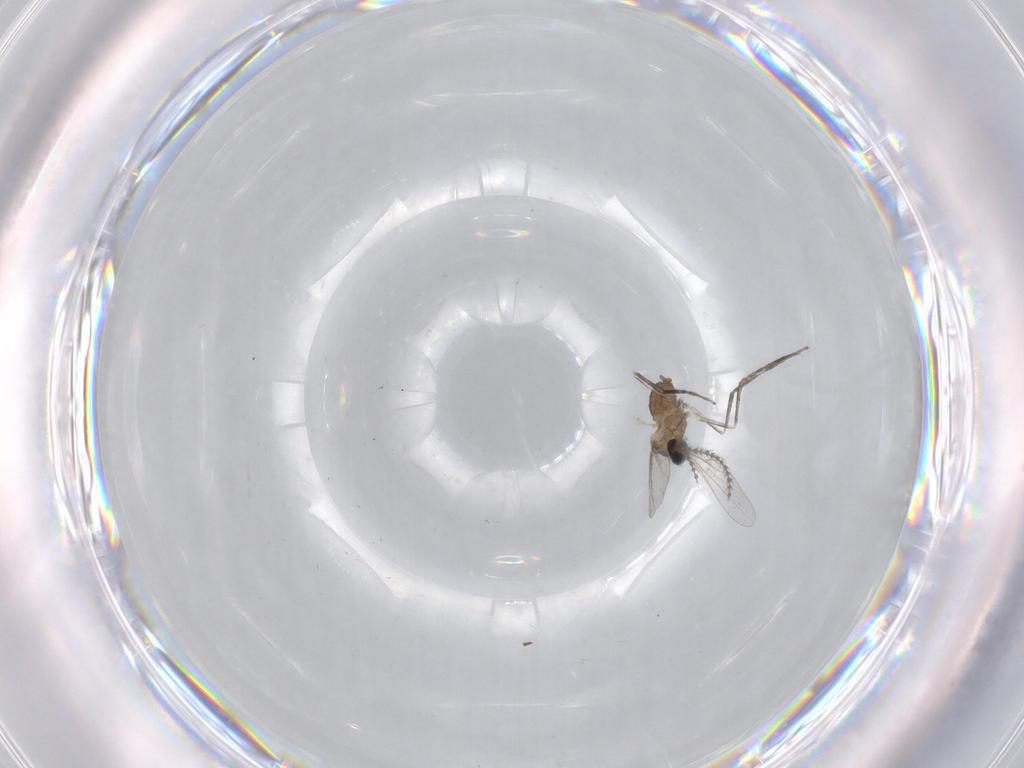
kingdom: Animalia
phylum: Arthropoda
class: Insecta
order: Diptera
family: Cecidomyiidae
